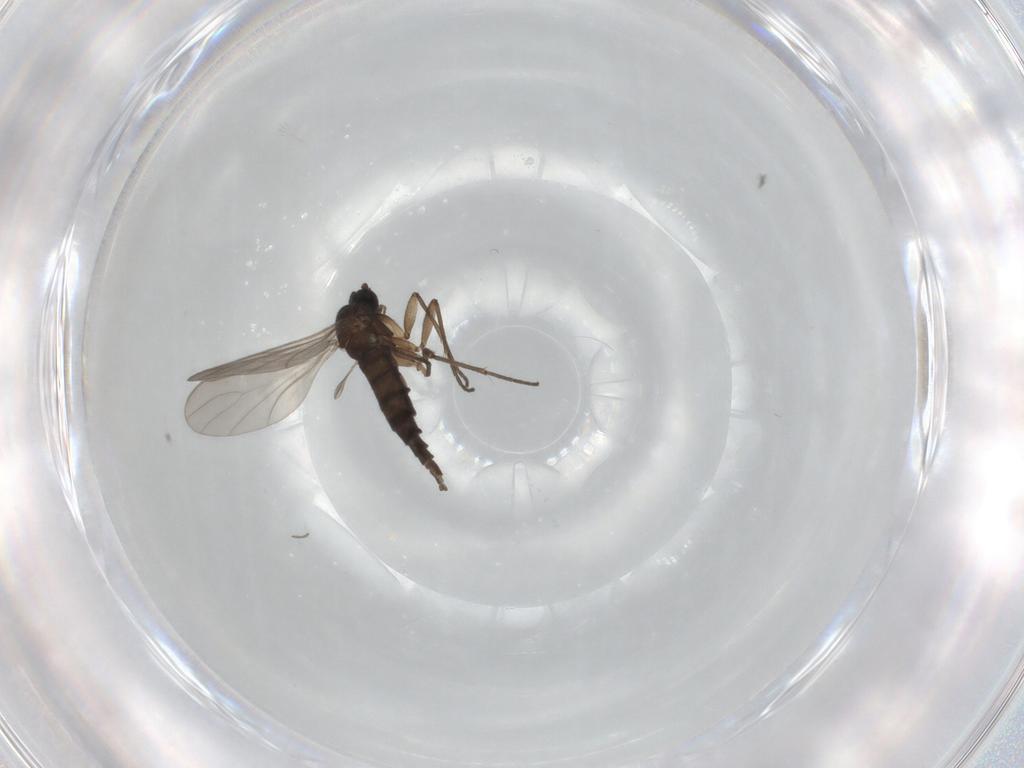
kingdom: Animalia
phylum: Arthropoda
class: Insecta
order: Diptera
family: Sciaridae
